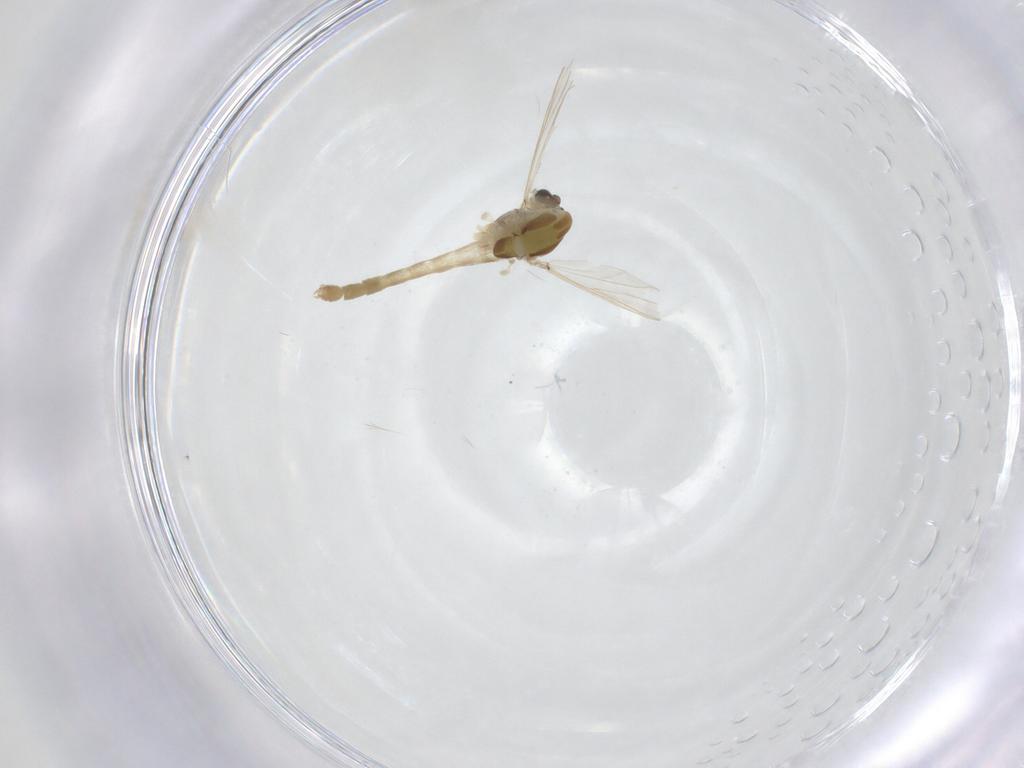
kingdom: Animalia
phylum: Arthropoda
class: Insecta
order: Diptera
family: Chironomidae
